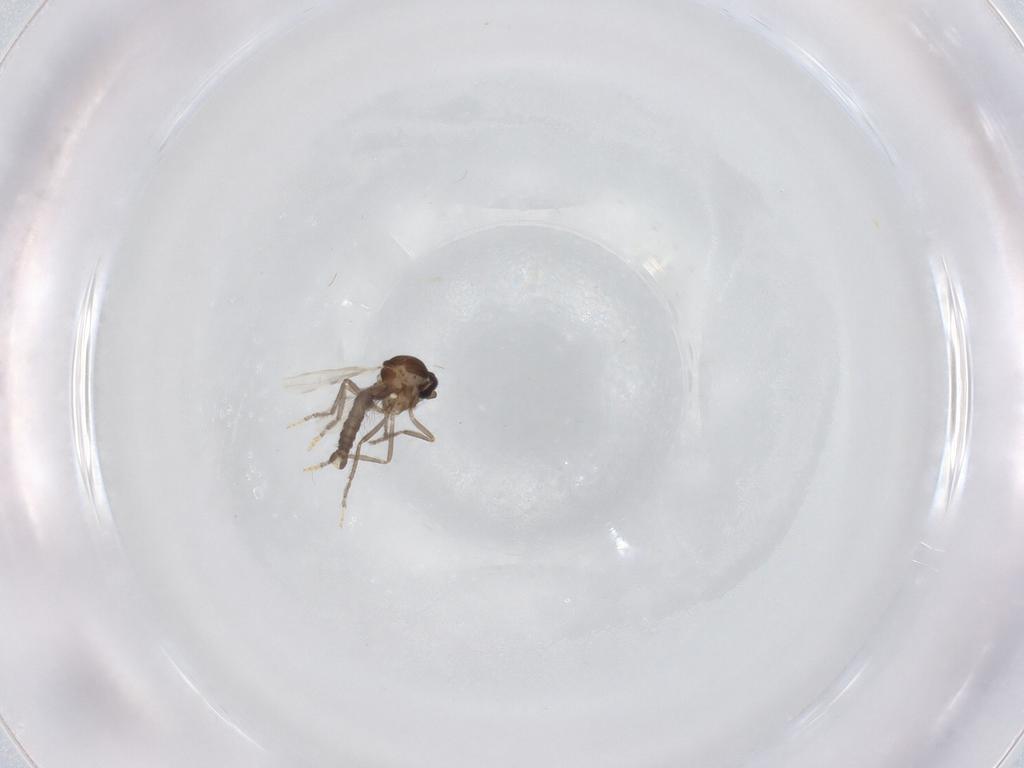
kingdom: Animalia
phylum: Arthropoda
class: Insecta
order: Diptera
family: Ceratopogonidae
